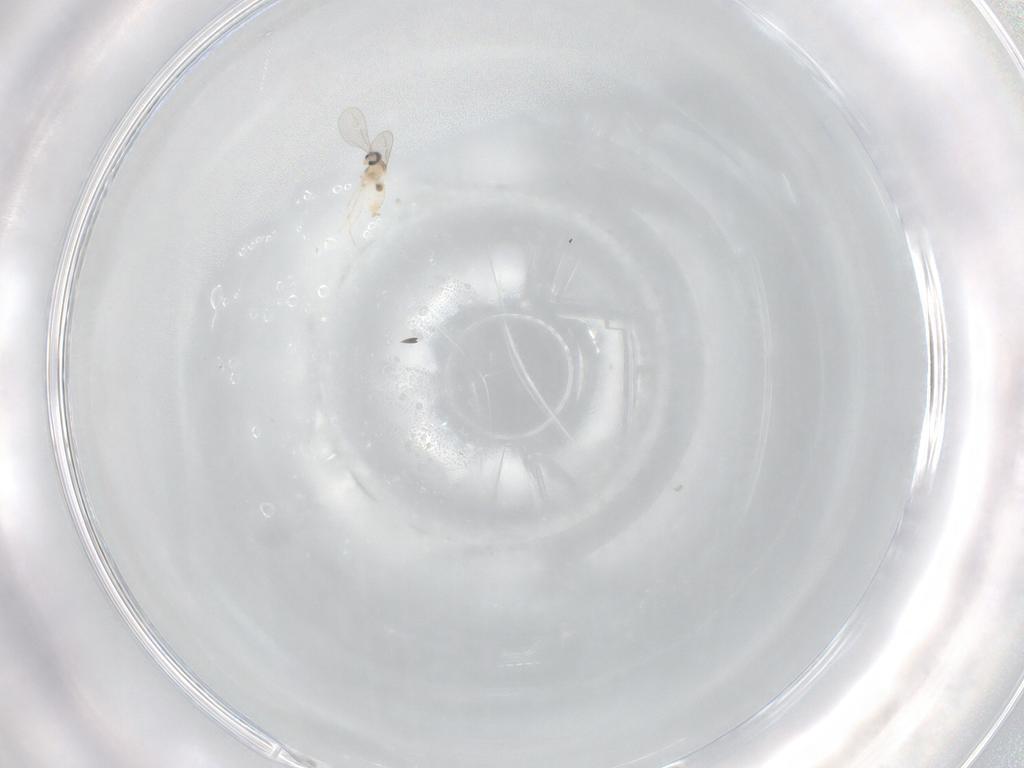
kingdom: Animalia
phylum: Arthropoda
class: Insecta
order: Diptera
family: Cecidomyiidae
